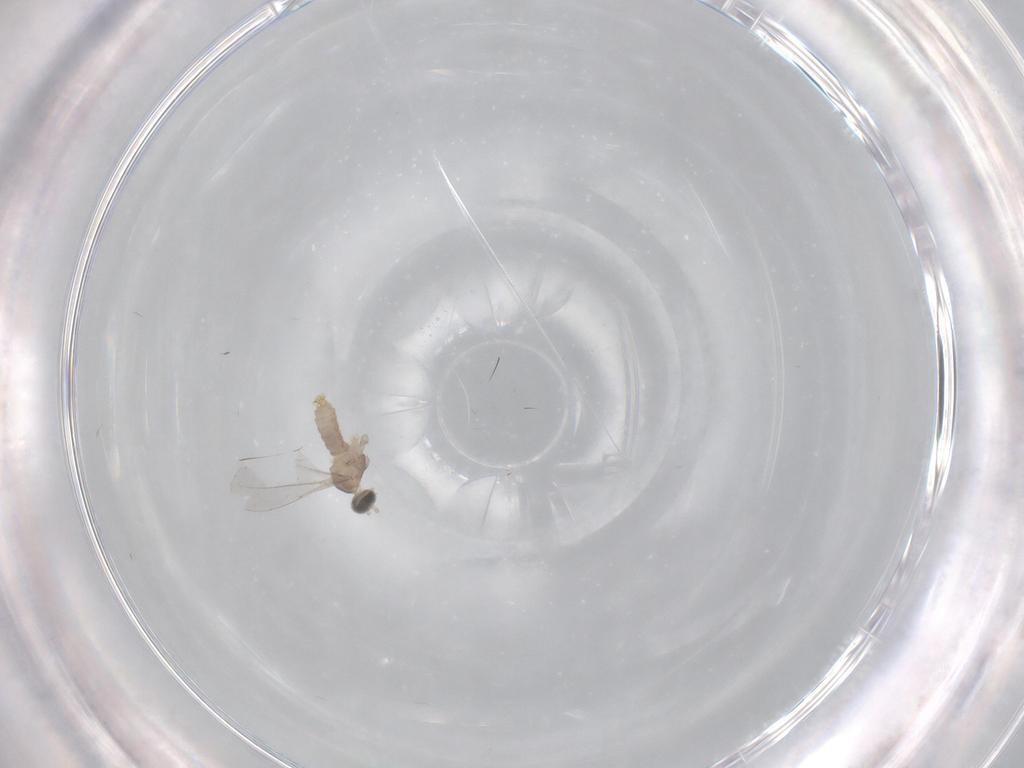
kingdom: Animalia
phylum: Arthropoda
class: Insecta
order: Diptera
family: Cecidomyiidae
